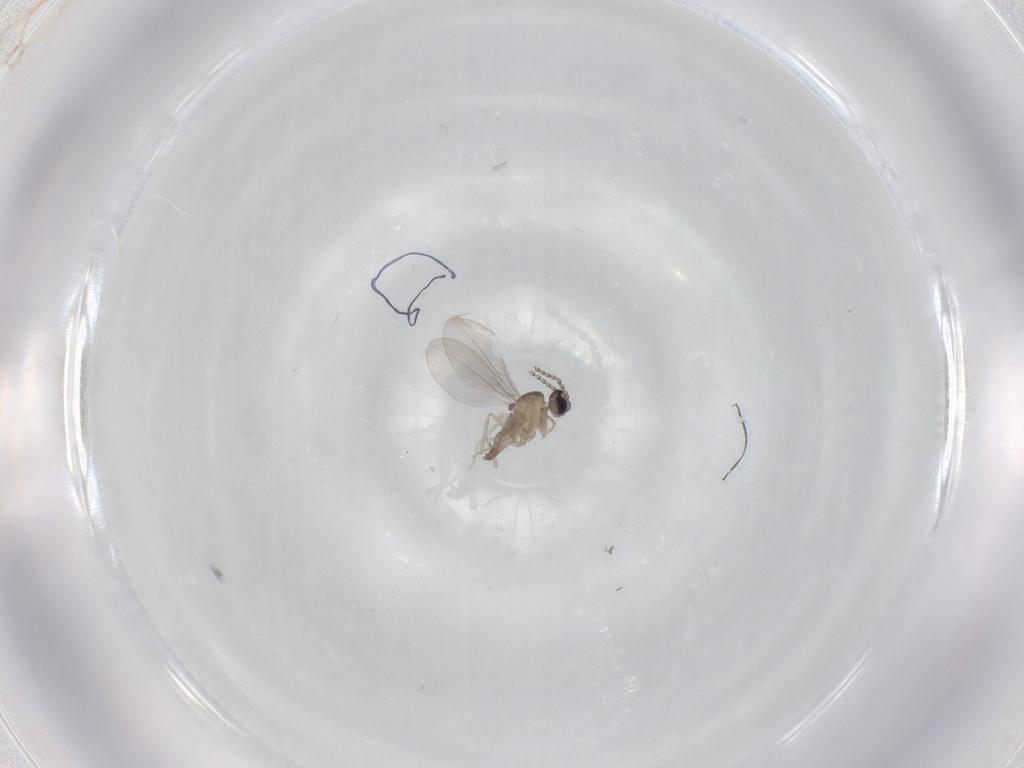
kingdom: Animalia
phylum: Arthropoda
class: Insecta
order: Diptera
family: Cecidomyiidae
